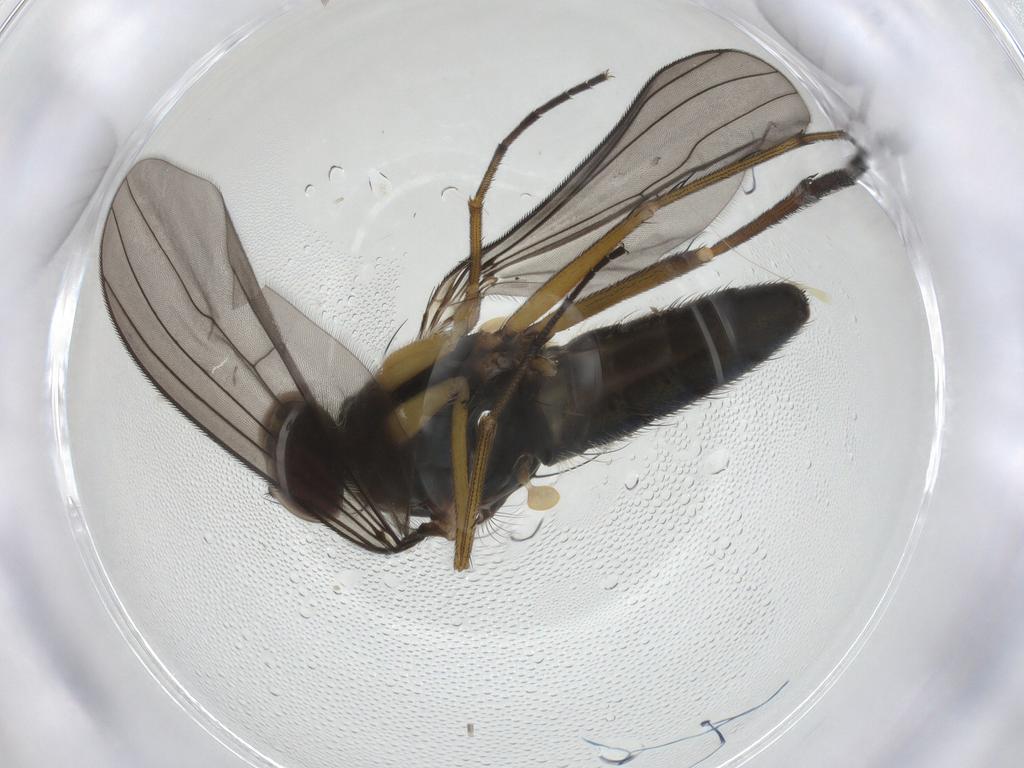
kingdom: Animalia
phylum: Arthropoda
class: Insecta
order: Diptera
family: Dolichopodidae
